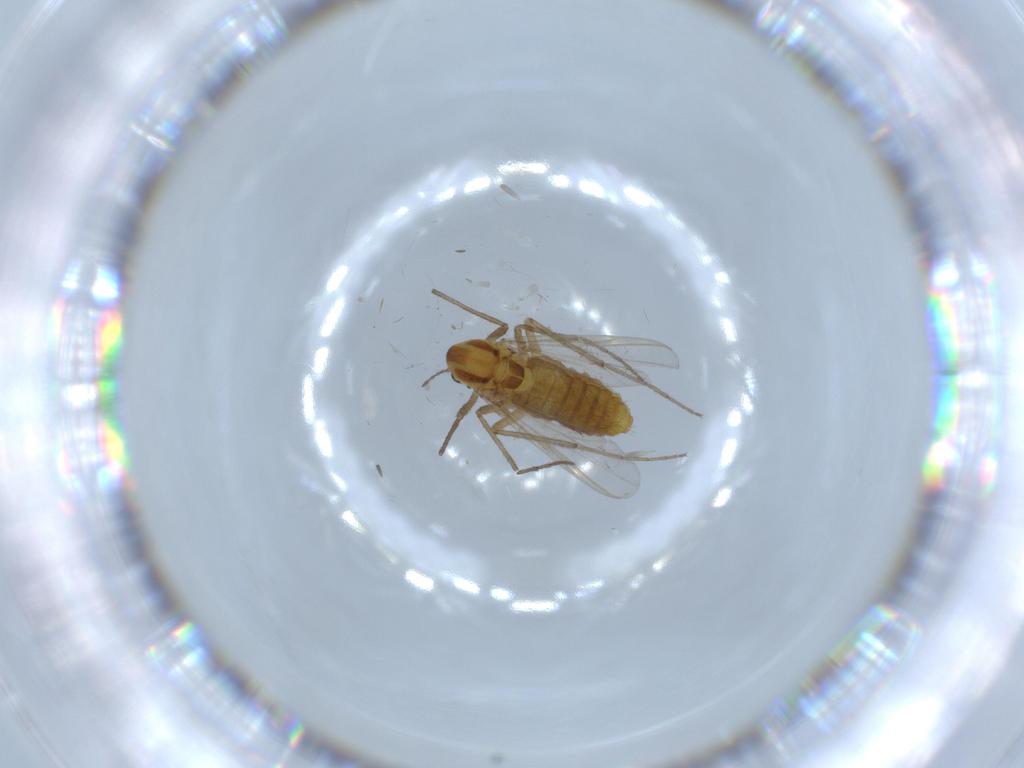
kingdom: Animalia
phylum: Arthropoda
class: Insecta
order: Diptera
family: Chironomidae
